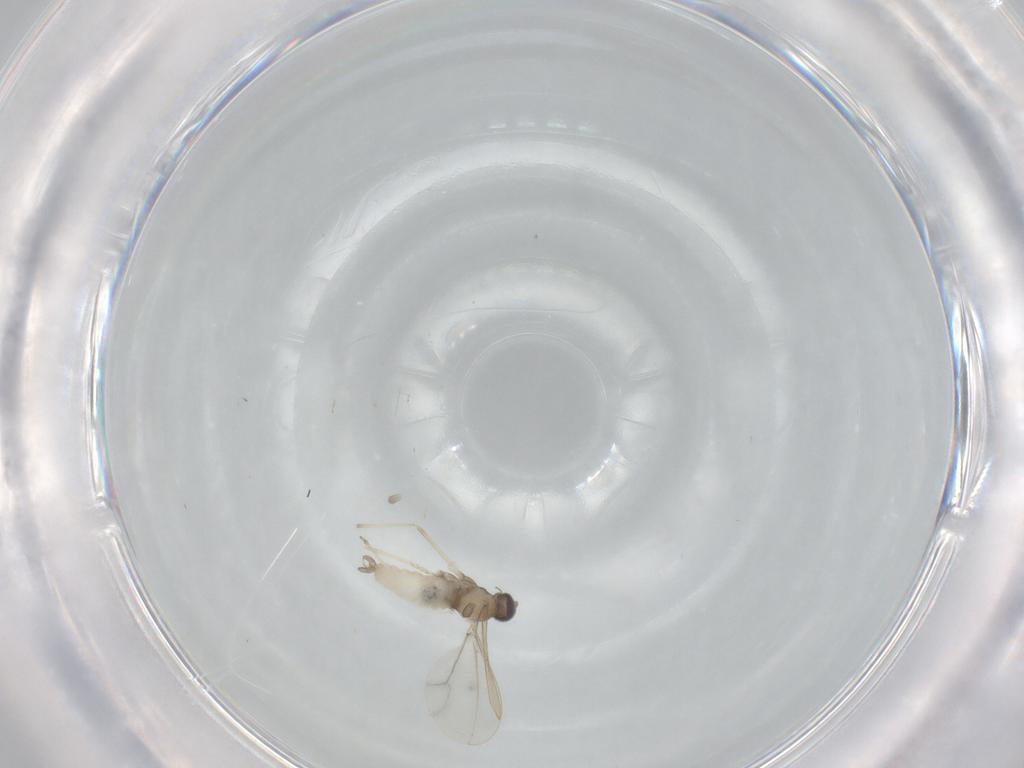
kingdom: Animalia
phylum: Arthropoda
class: Insecta
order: Diptera
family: Cecidomyiidae
